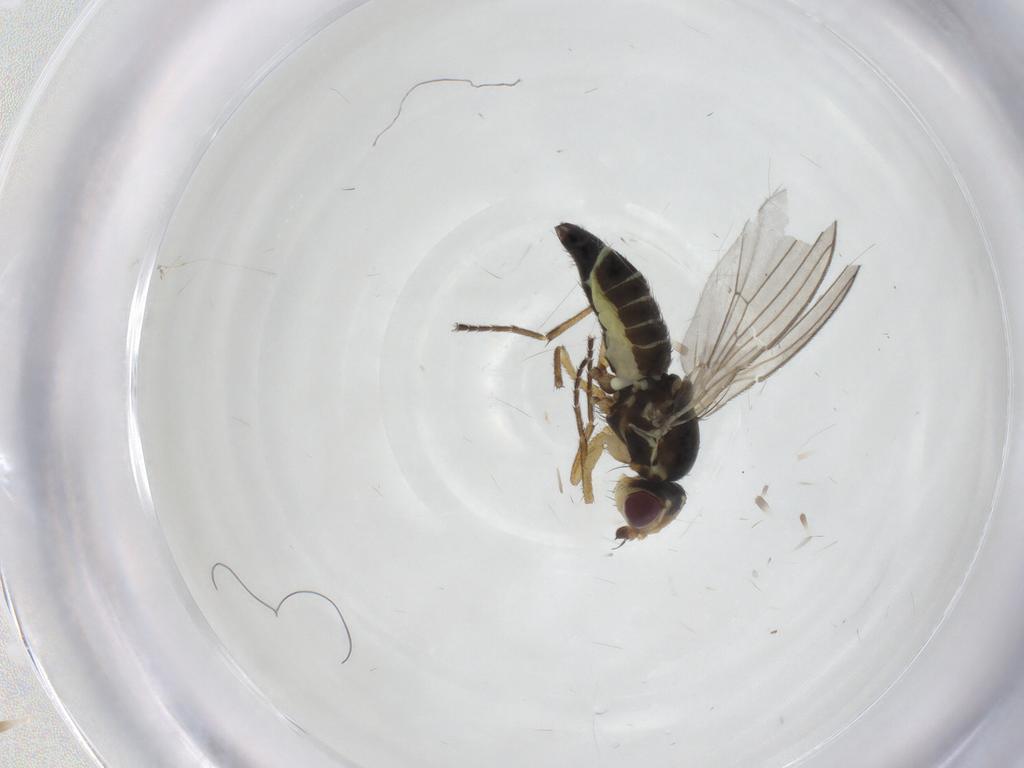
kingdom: Animalia
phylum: Arthropoda
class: Insecta
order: Diptera
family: Agromyzidae
